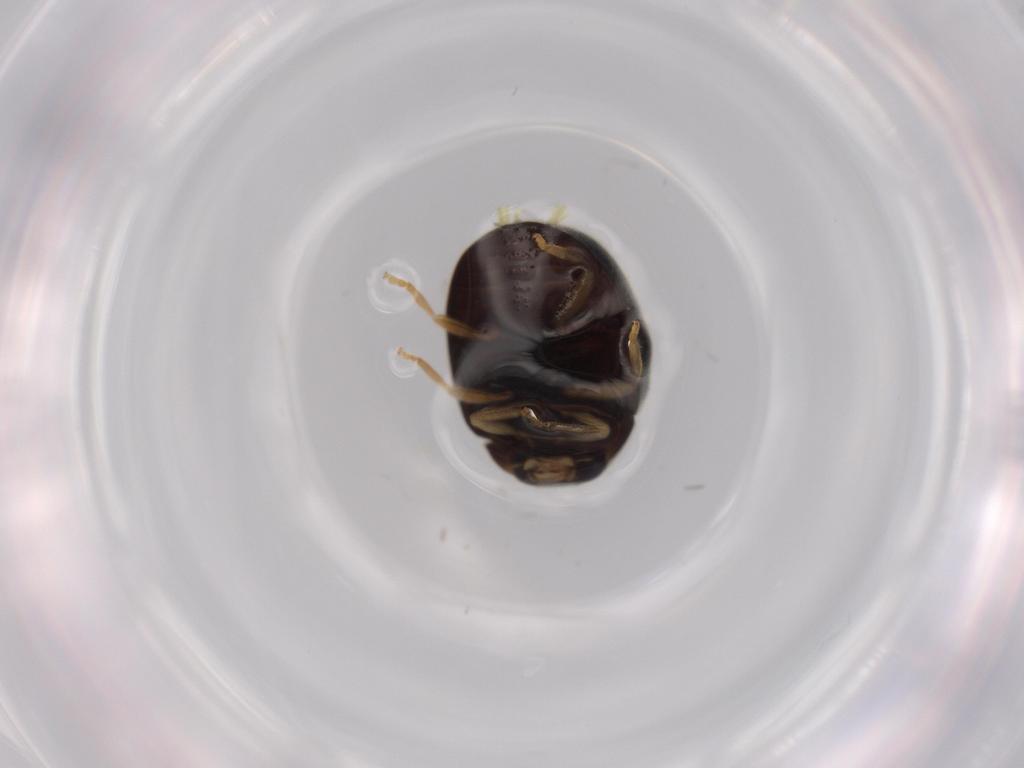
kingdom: Animalia
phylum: Arthropoda
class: Insecta
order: Coleoptera
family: Coccinellidae
